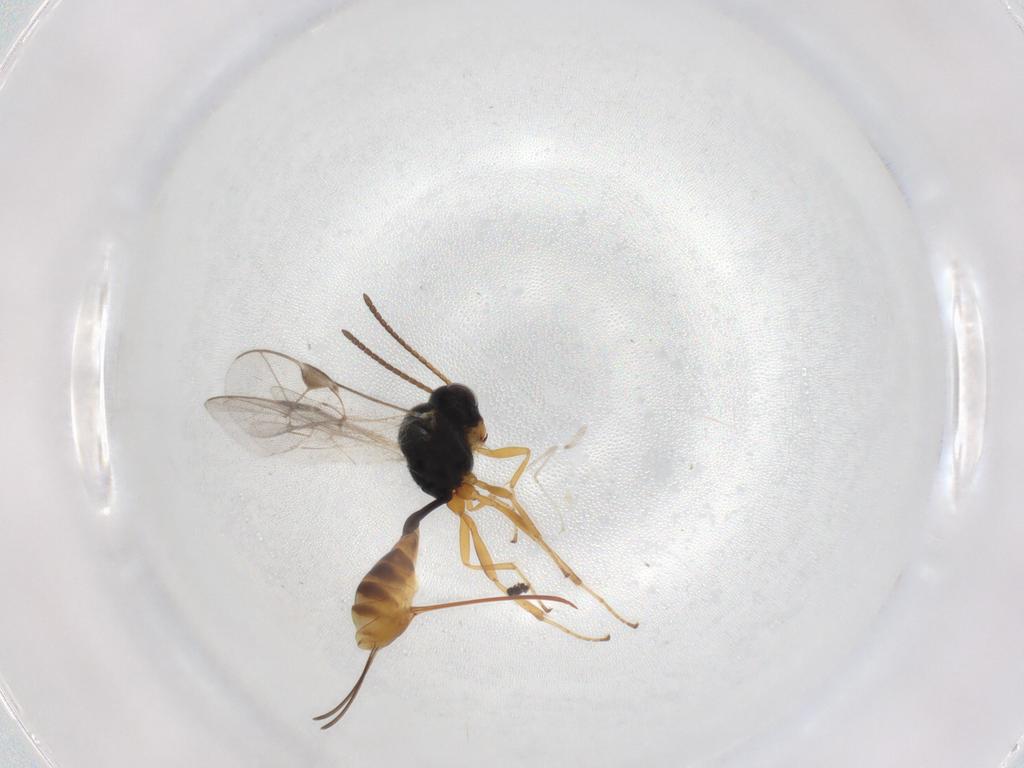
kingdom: Animalia
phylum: Arthropoda
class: Insecta
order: Hymenoptera
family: Ichneumonidae
